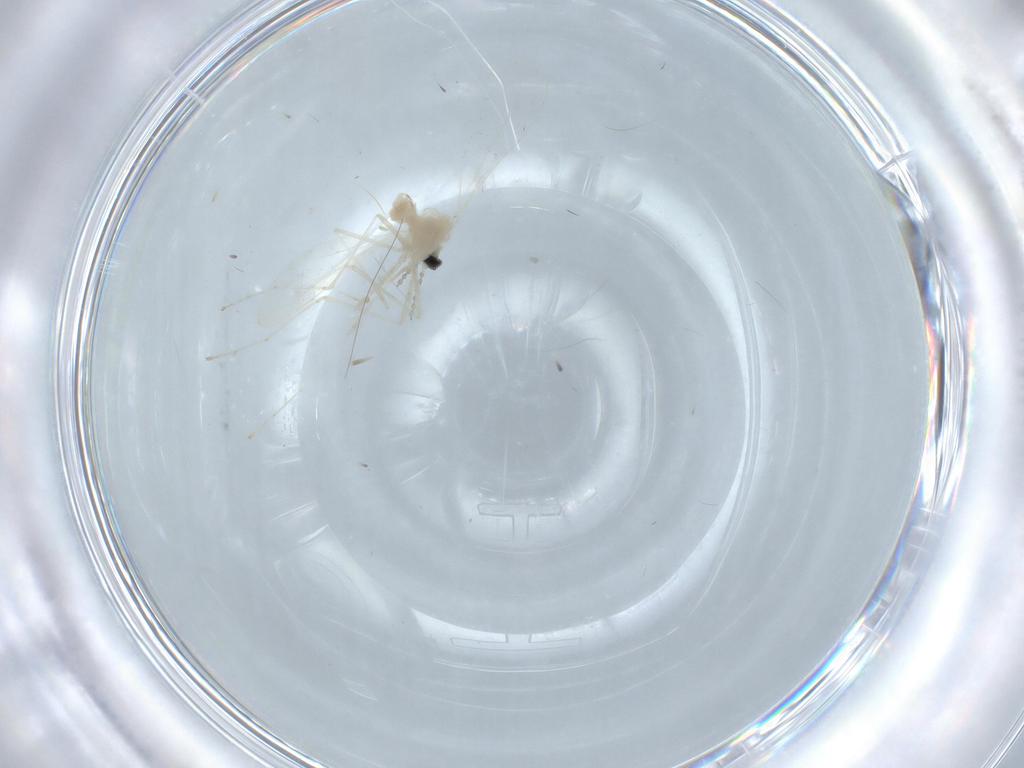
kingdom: Animalia
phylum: Arthropoda
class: Insecta
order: Diptera
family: Cecidomyiidae
